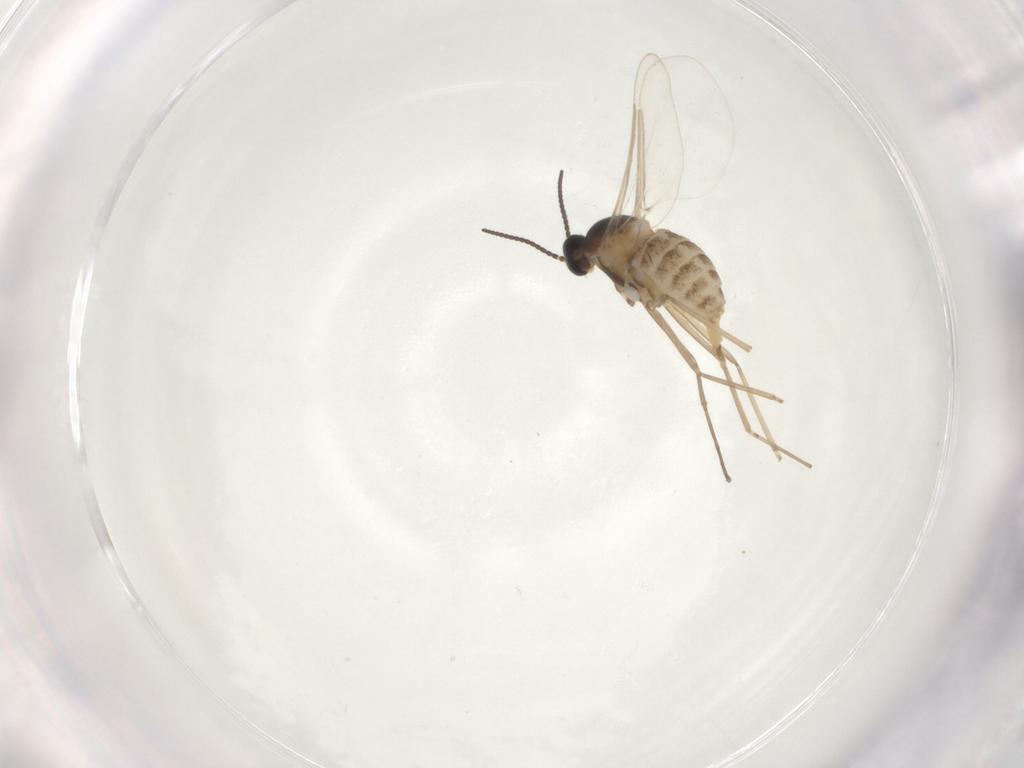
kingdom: Animalia
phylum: Arthropoda
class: Insecta
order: Diptera
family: Cecidomyiidae
